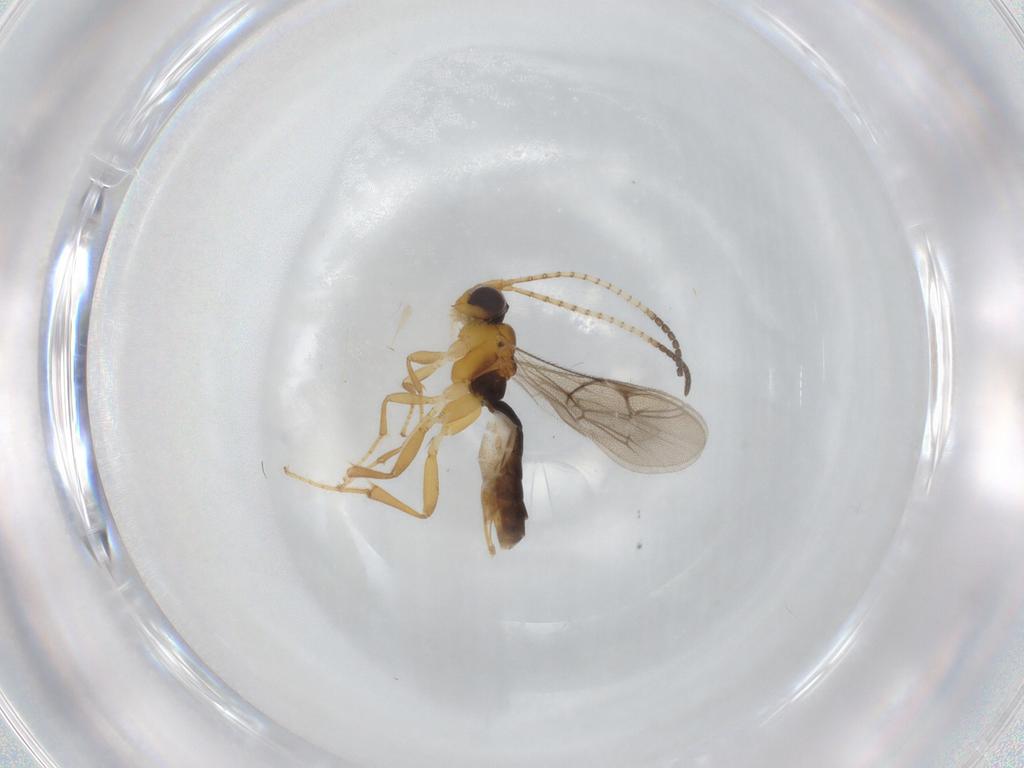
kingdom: Animalia
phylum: Arthropoda
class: Insecta
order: Hymenoptera
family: Ichneumonidae
